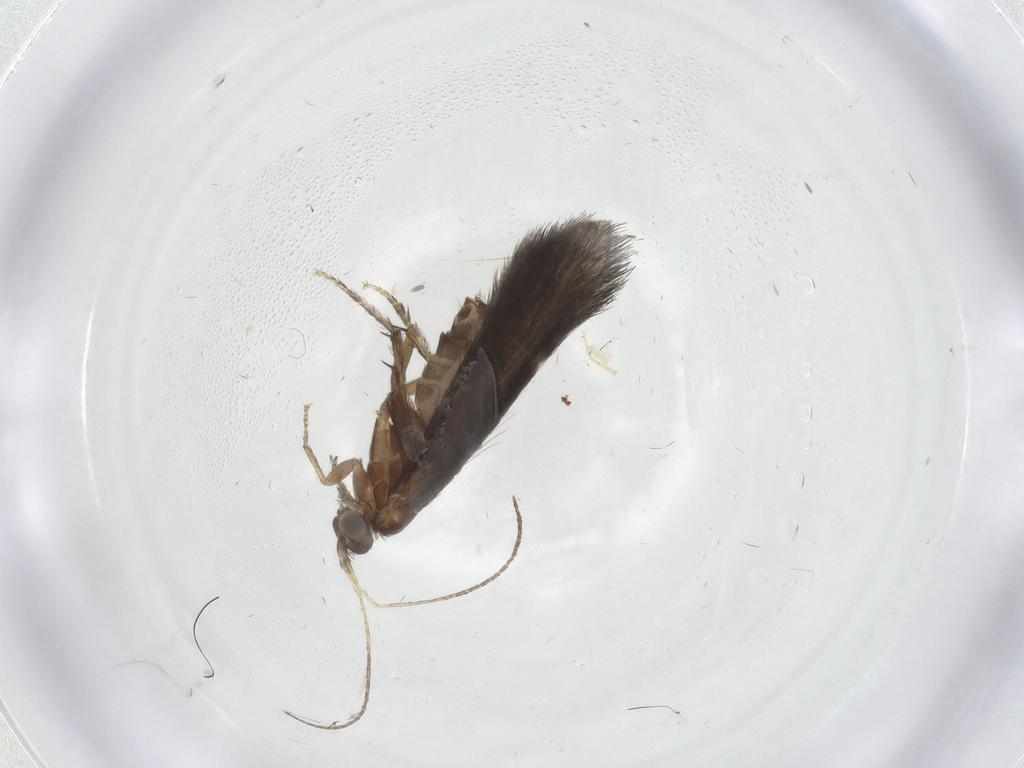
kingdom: Animalia
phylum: Arthropoda
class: Insecta
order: Trichoptera
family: Glossosomatidae
